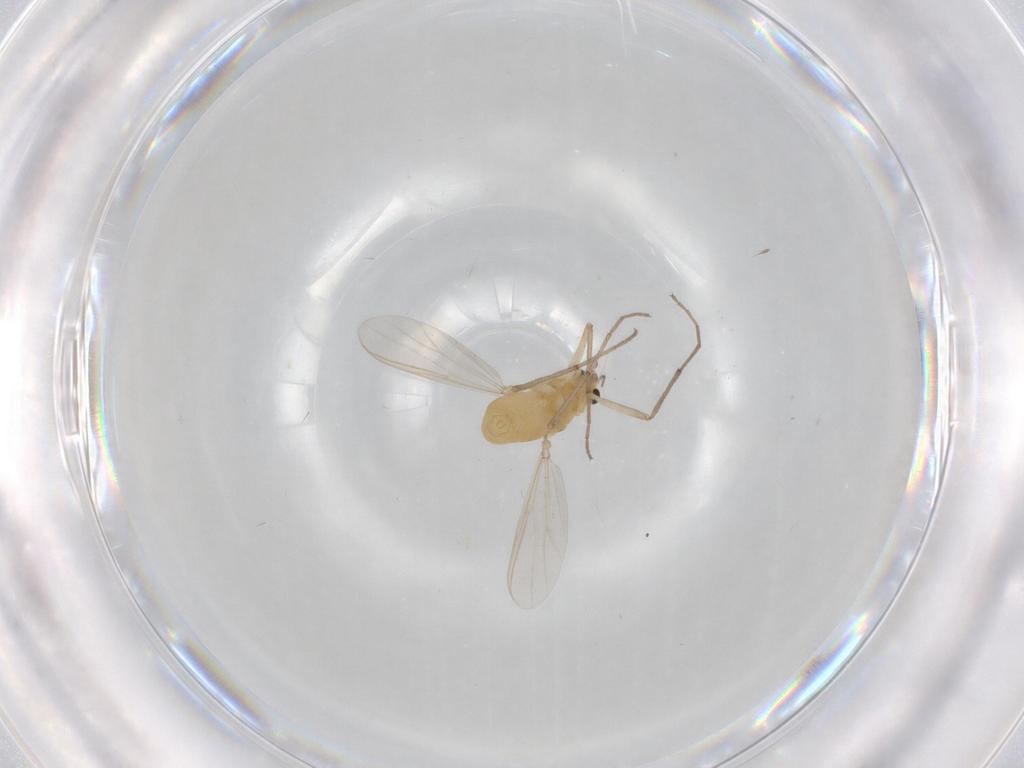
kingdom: Animalia
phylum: Arthropoda
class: Insecta
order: Diptera
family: Chironomidae
